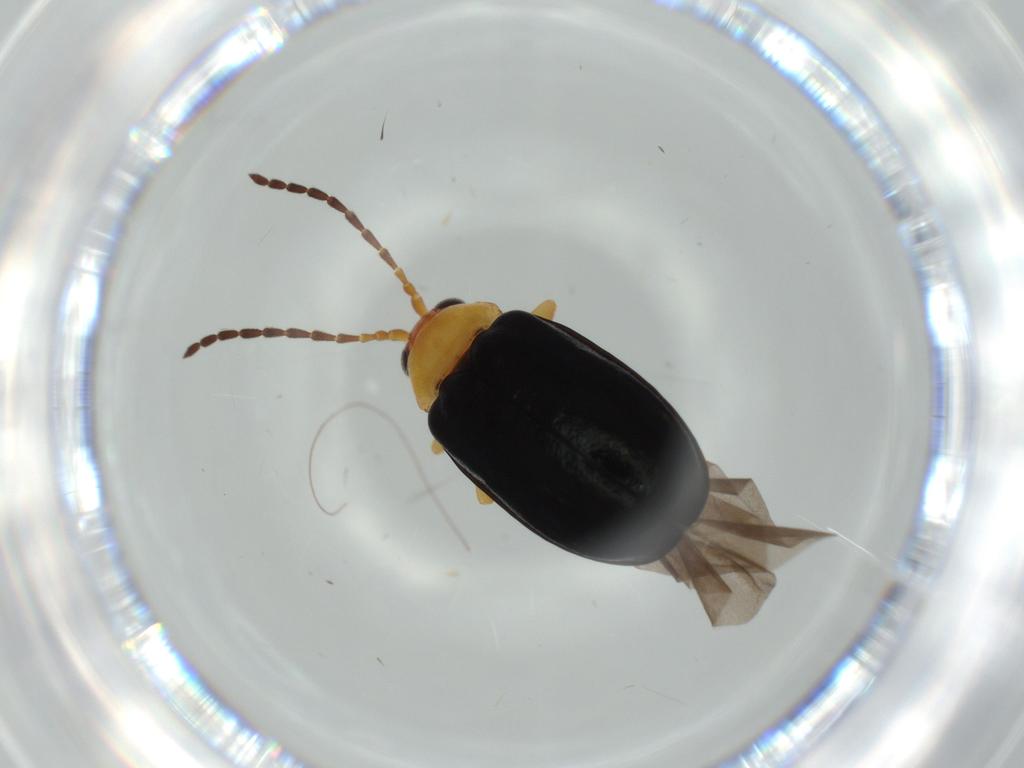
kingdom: Animalia
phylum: Arthropoda
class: Insecta
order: Coleoptera
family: Chrysomelidae
